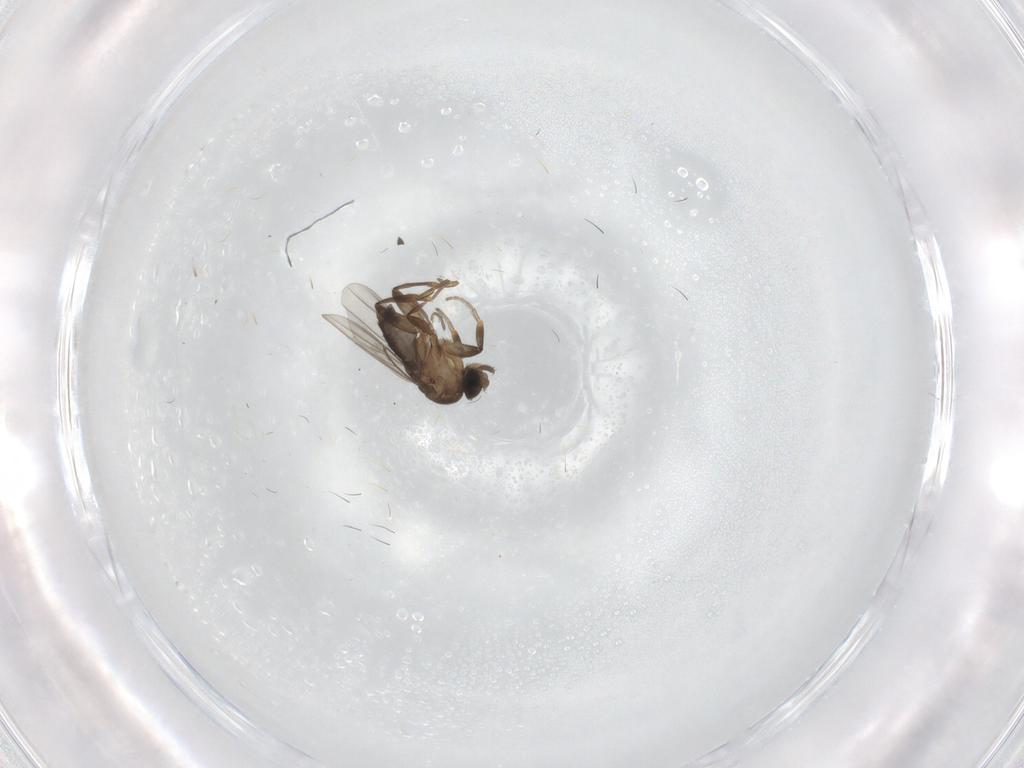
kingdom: Animalia
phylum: Arthropoda
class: Insecta
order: Diptera
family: Phoridae
